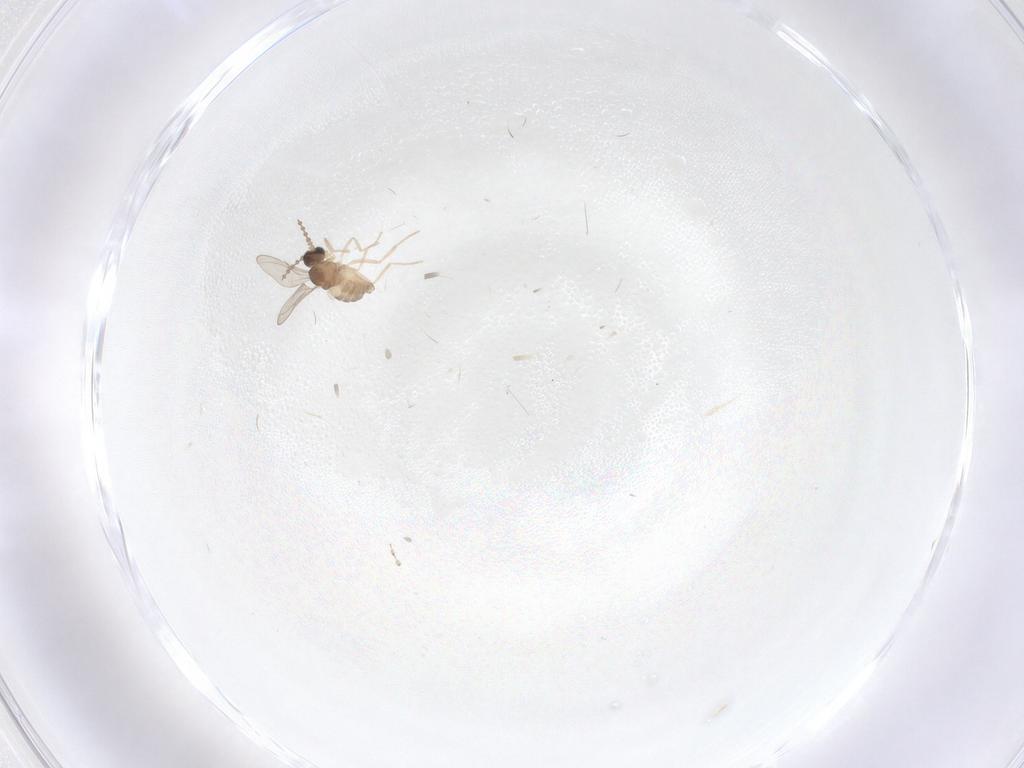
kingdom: Animalia
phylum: Arthropoda
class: Insecta
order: Diptera
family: Cecidomyiidae
